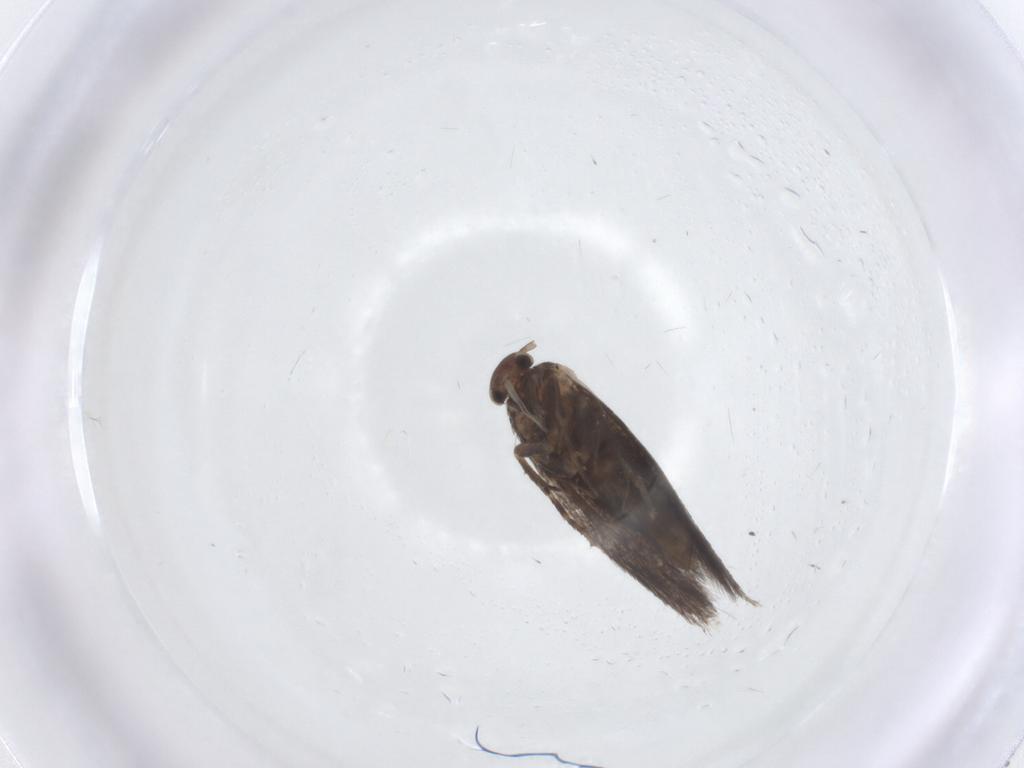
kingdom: Animalia
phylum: Arthropoda
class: Insecta
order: Lepidoptera
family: Elachistidae
